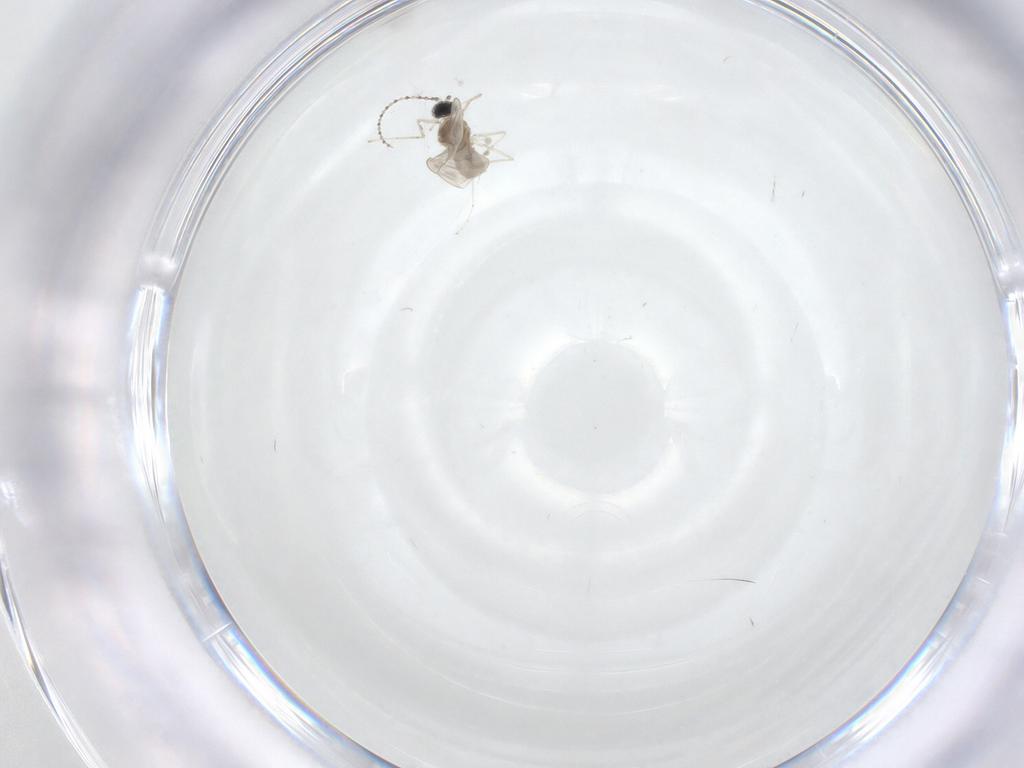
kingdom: Animalia
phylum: Arthropoda
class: Insecta
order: Diptera
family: Cecidomyiidae
